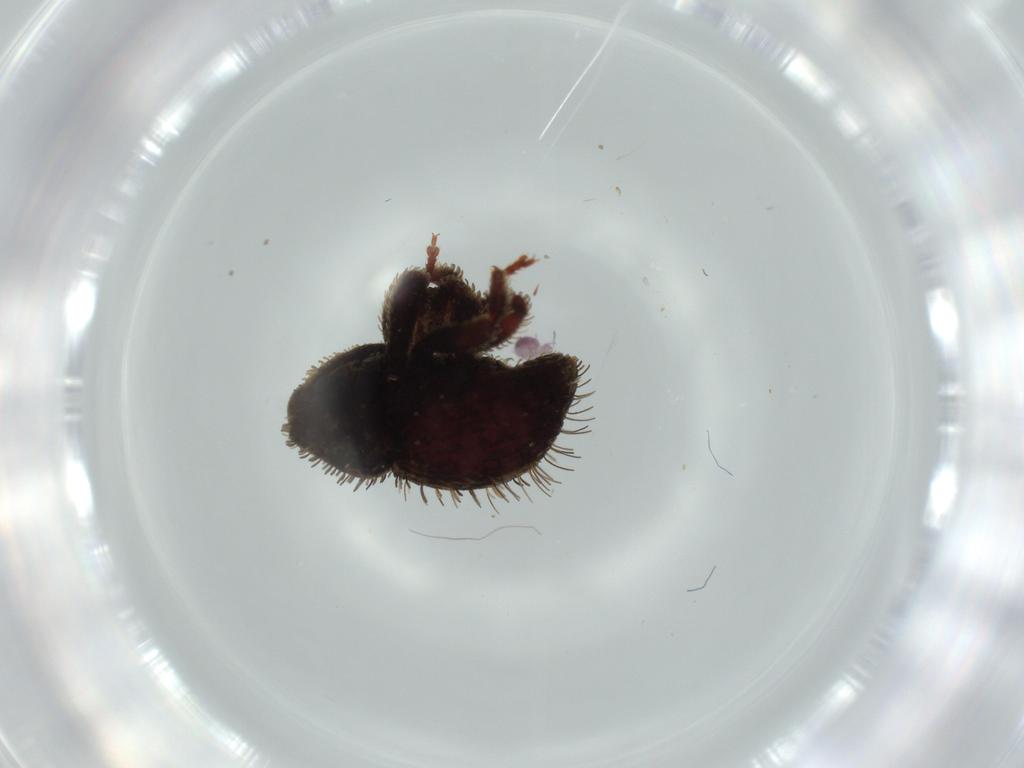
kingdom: Animalia
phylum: Arthropoda
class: Insecta
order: Coleoptera
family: Curculionidae
